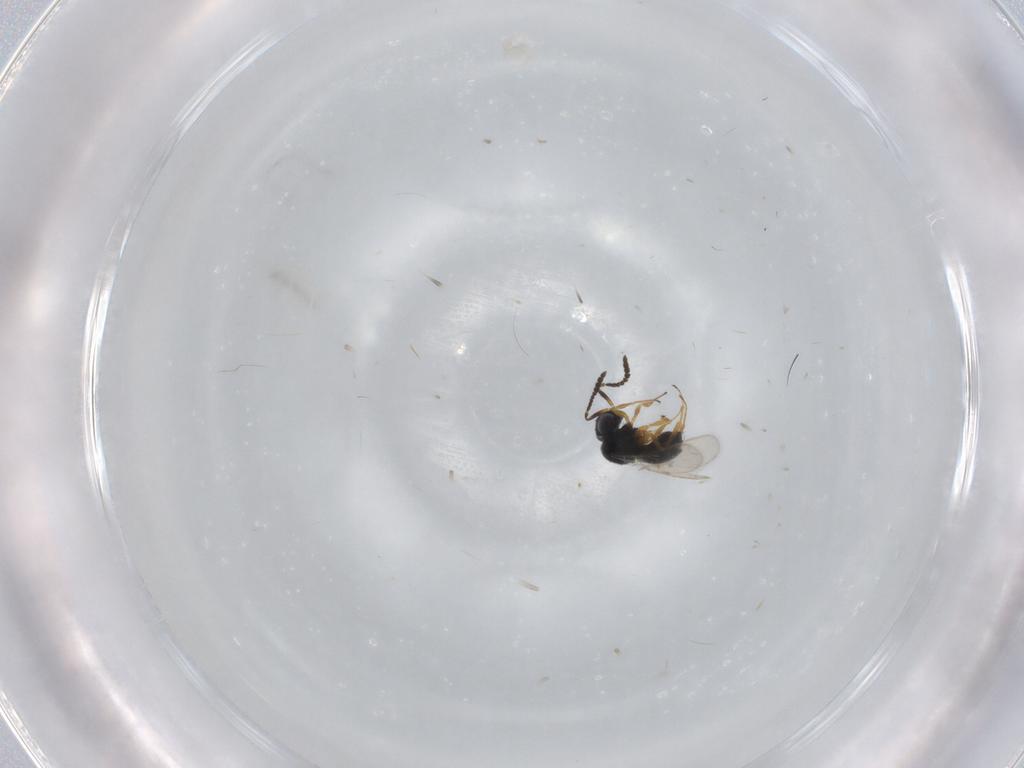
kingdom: Animalia
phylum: Arthropoda
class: Insecta
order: Hymenoptera
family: Scelionidae
